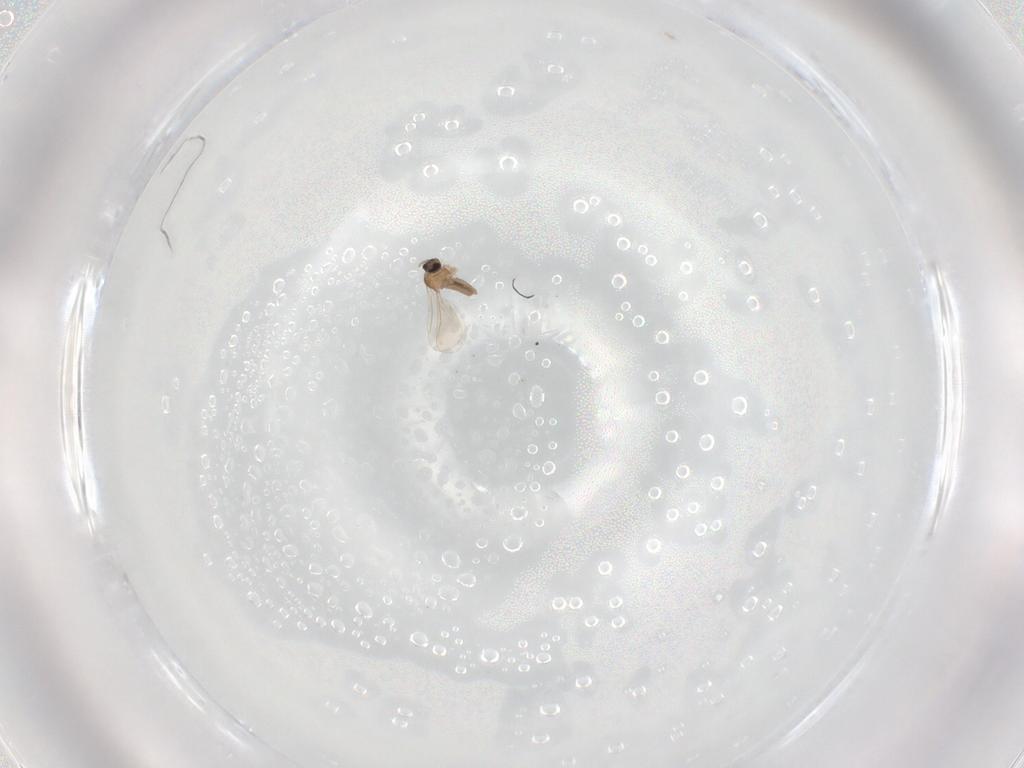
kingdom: Animalia
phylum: Arthropoda
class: Insecta
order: Diptera
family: Cecidomyiidae
